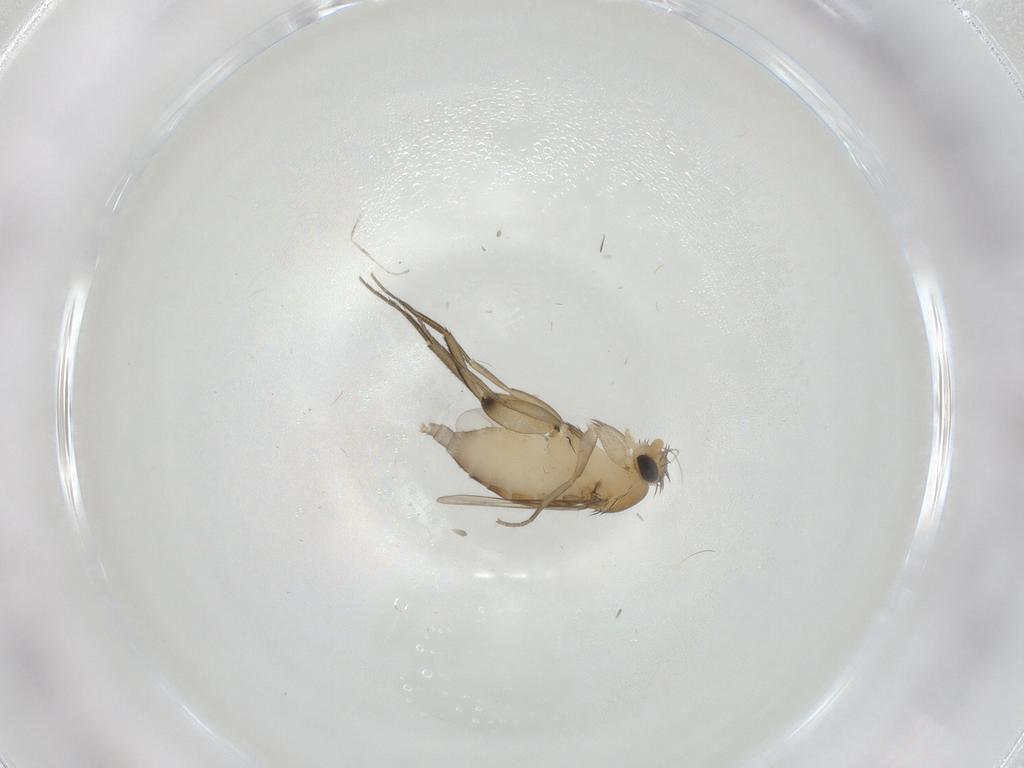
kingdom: Animalia
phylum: Arthropoda
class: Insecta
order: Diptera
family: Phoridae
